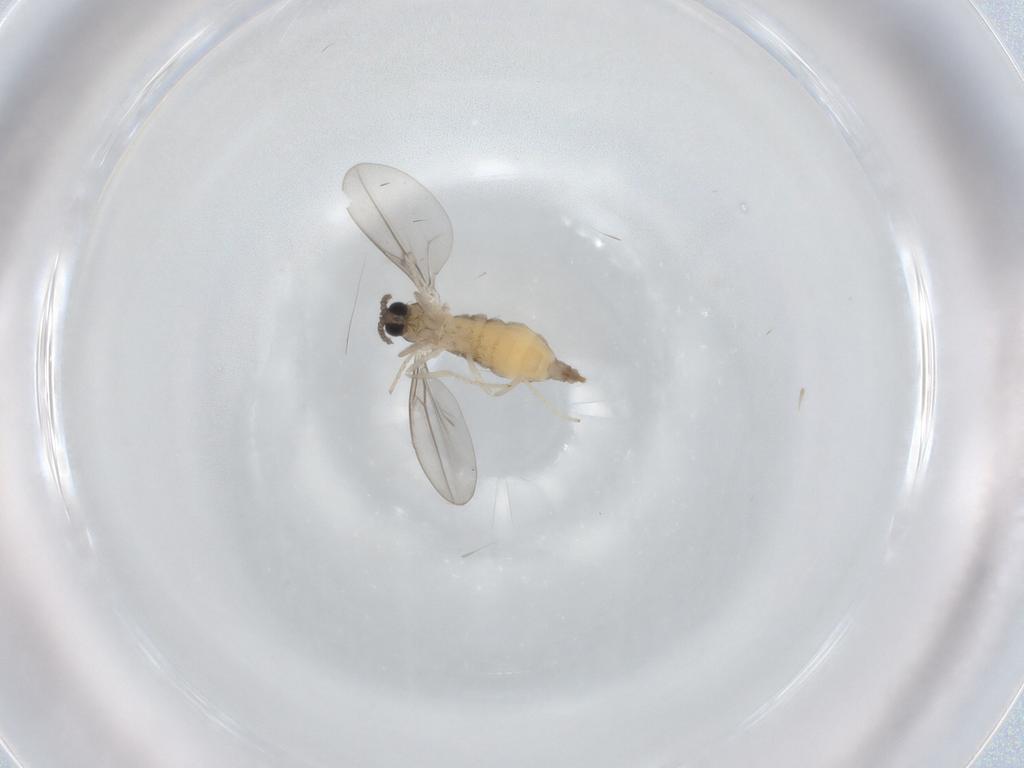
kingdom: Animalia
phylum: Arthropoda
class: Insecta
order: Diptera
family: Cecidomyiidae
